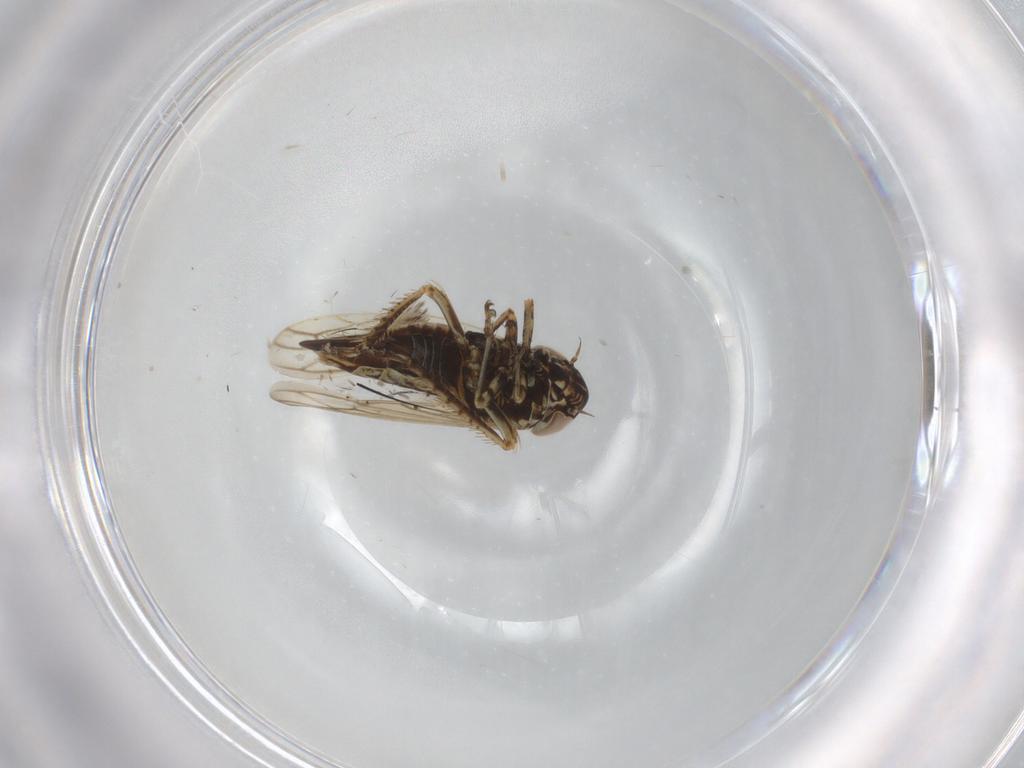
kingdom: Animalia
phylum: Arthropoda
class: Insecta
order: Hemiptera
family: Cicadellidae
